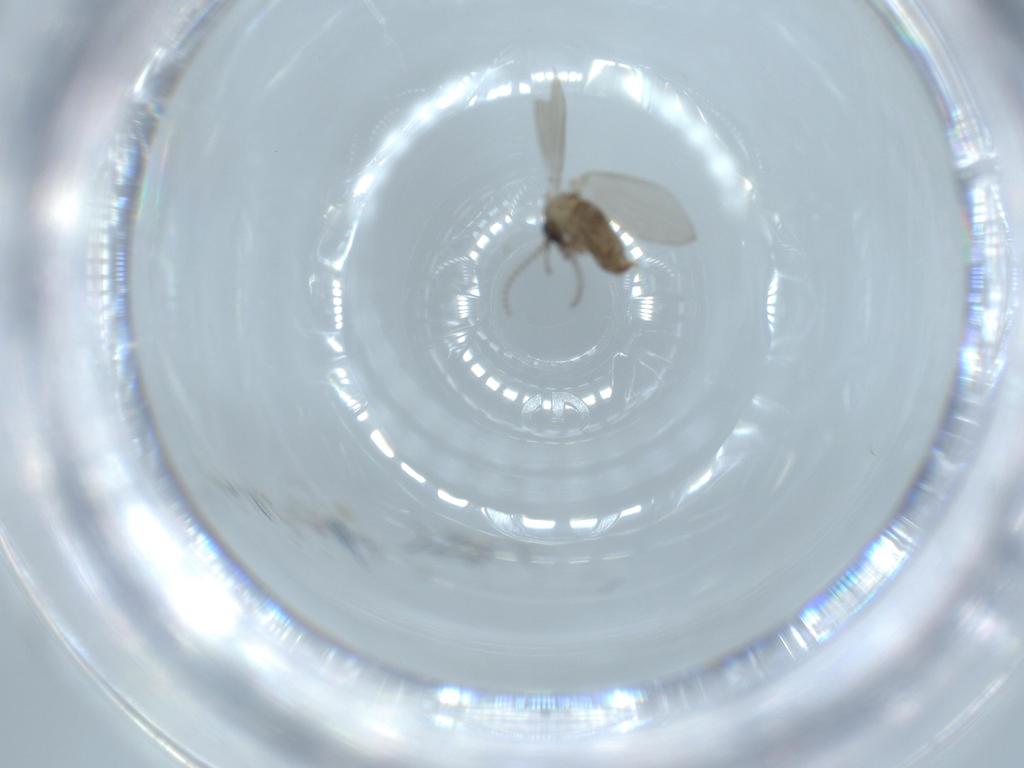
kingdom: Animalia
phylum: Arthropoda
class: Insecta
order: Diptera
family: Psychodidae
